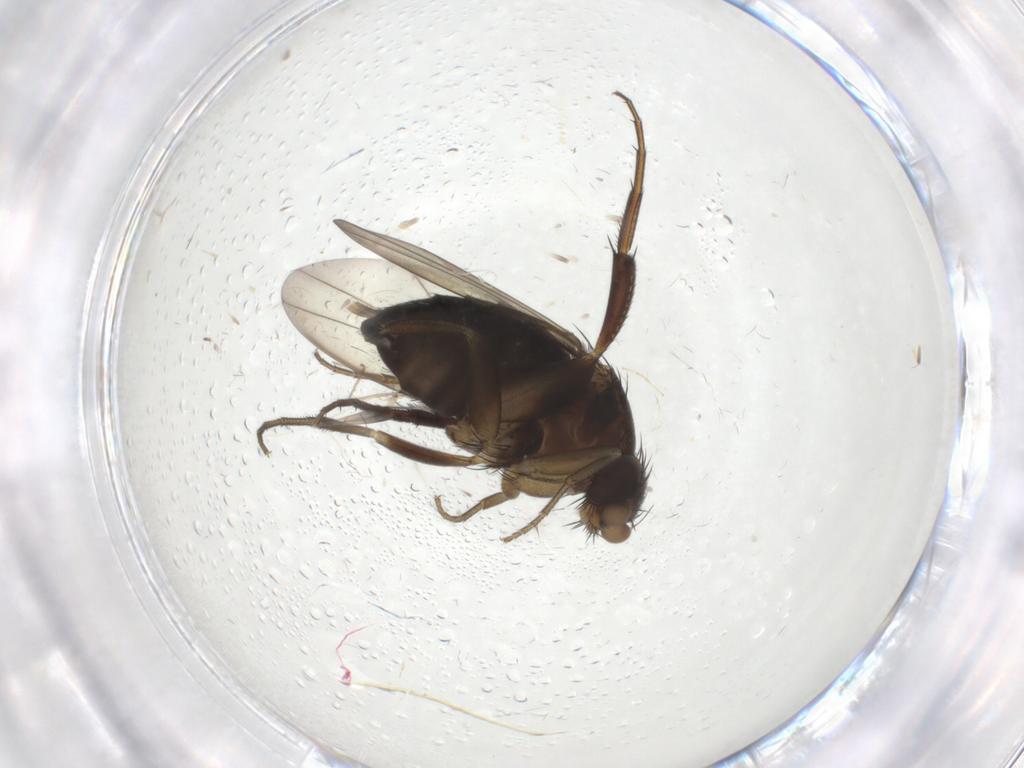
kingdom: Animalia
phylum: Arthropoda
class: Insecta
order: Diptera
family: Phoridae
